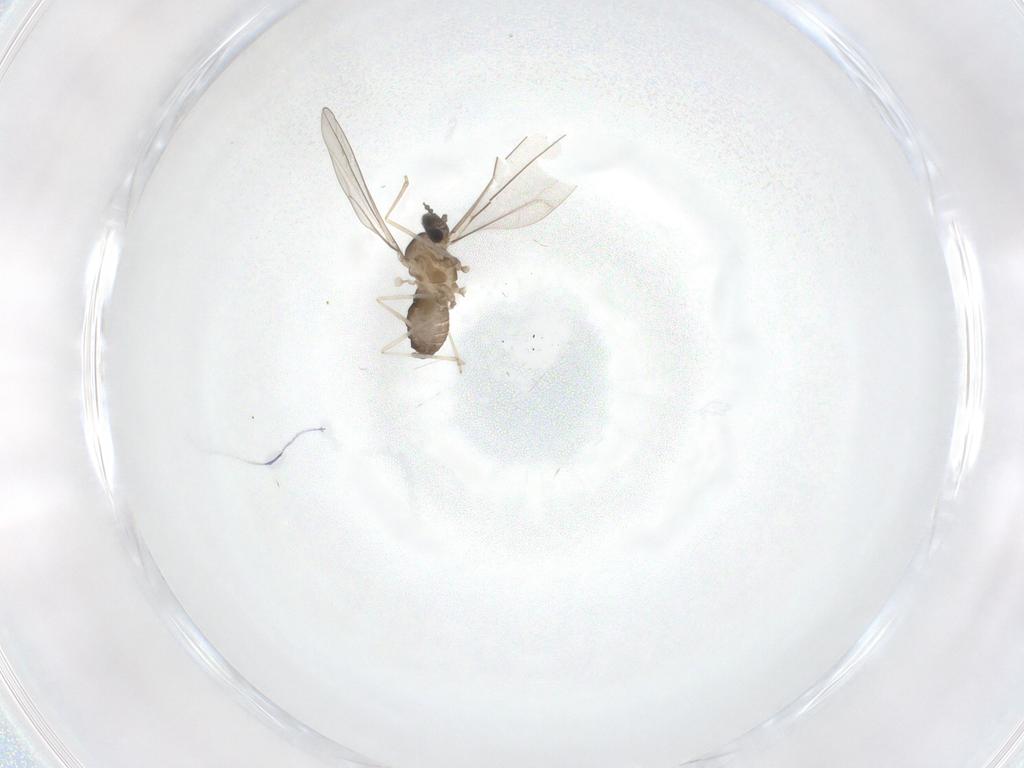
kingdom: Animalia
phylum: Arthropoda
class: Insecta
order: Diptera
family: Ceratopogonidae
